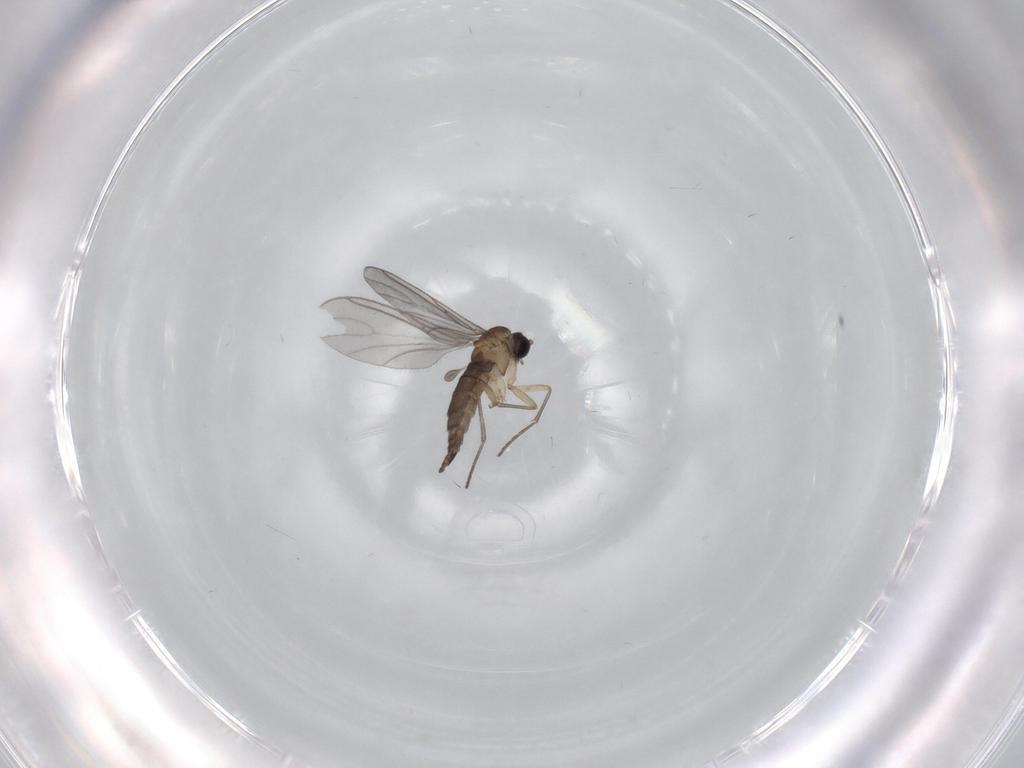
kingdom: Animalia
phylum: Arthropoda
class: Insecta
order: Diptera
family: Sciaridae
